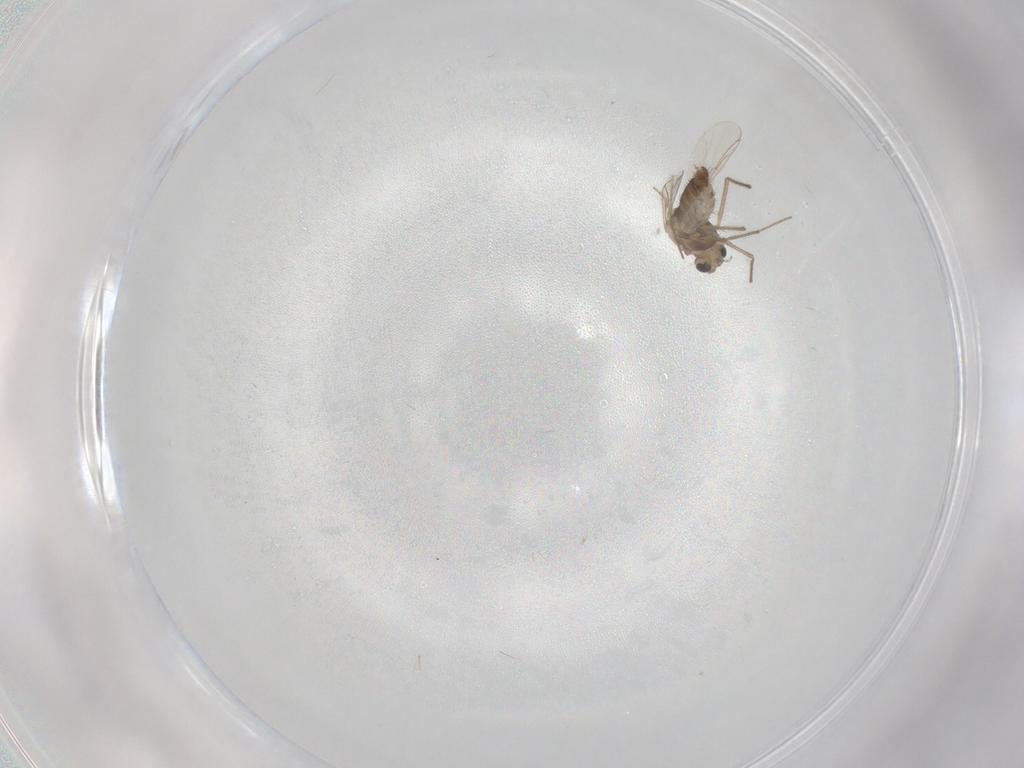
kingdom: Animalia
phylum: Arthropoda
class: Insecta
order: Diptera
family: Chironomidae
